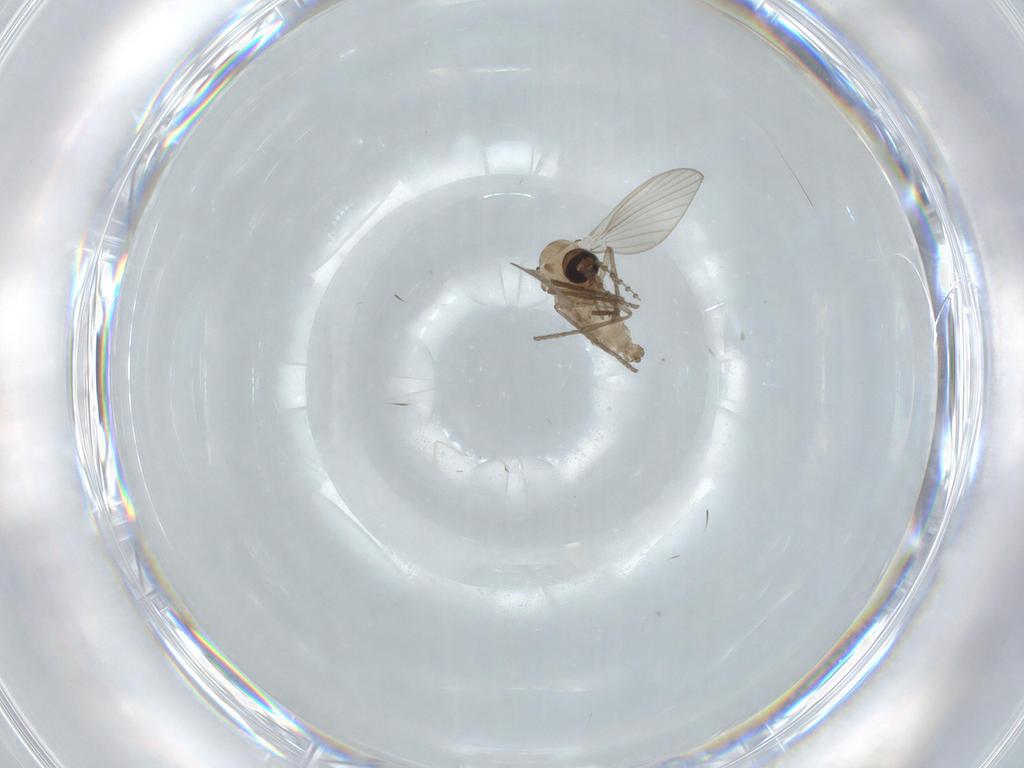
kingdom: Animalia
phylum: Arthropoda
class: Insecta
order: Diptera
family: Psychodidae
